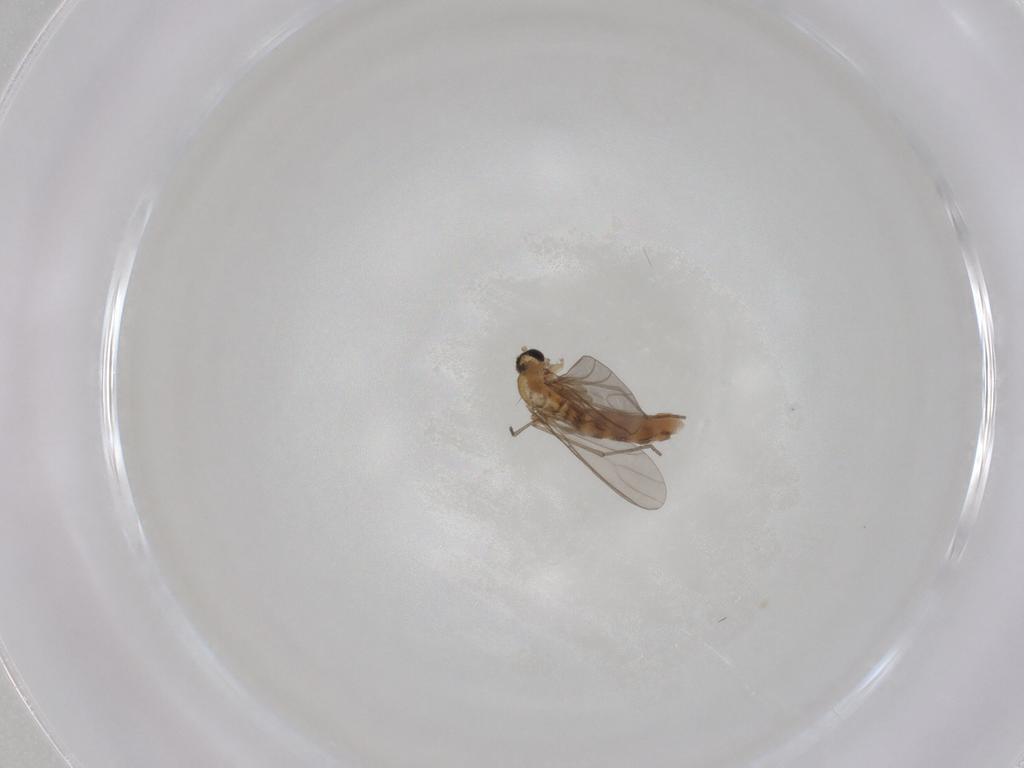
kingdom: Animalia
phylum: Arthropoda
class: Insecta
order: Diptera
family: Sciaridae
